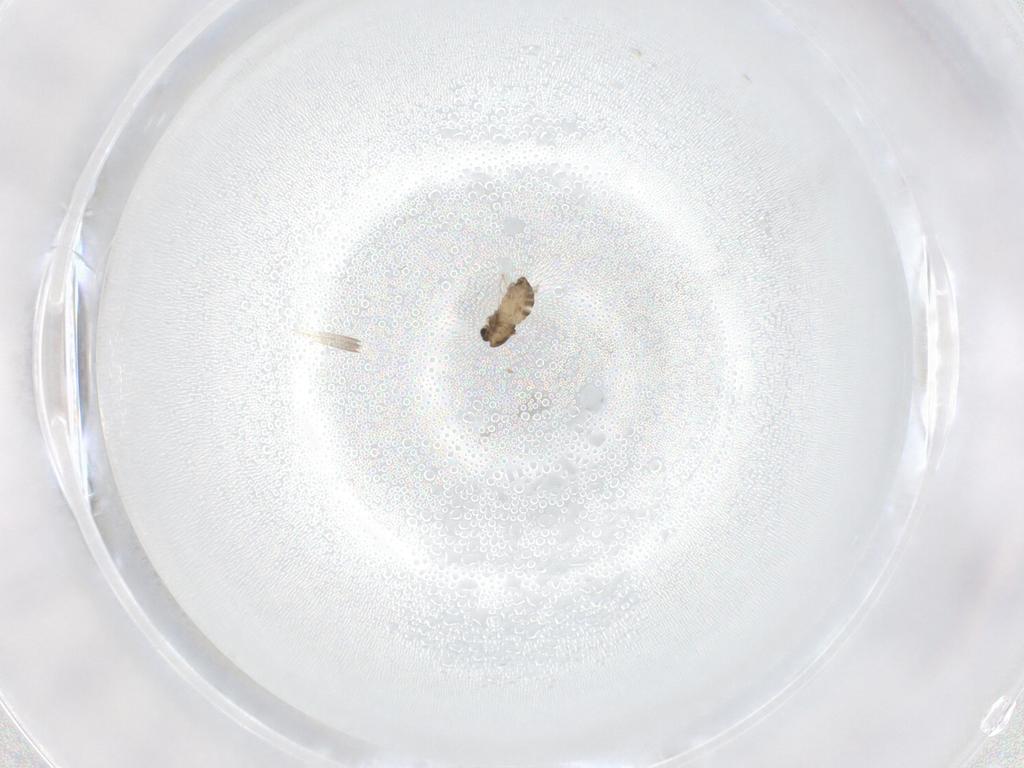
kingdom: Animalia
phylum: Arthropoda
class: Insecta
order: Diptera
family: Chironomidae
